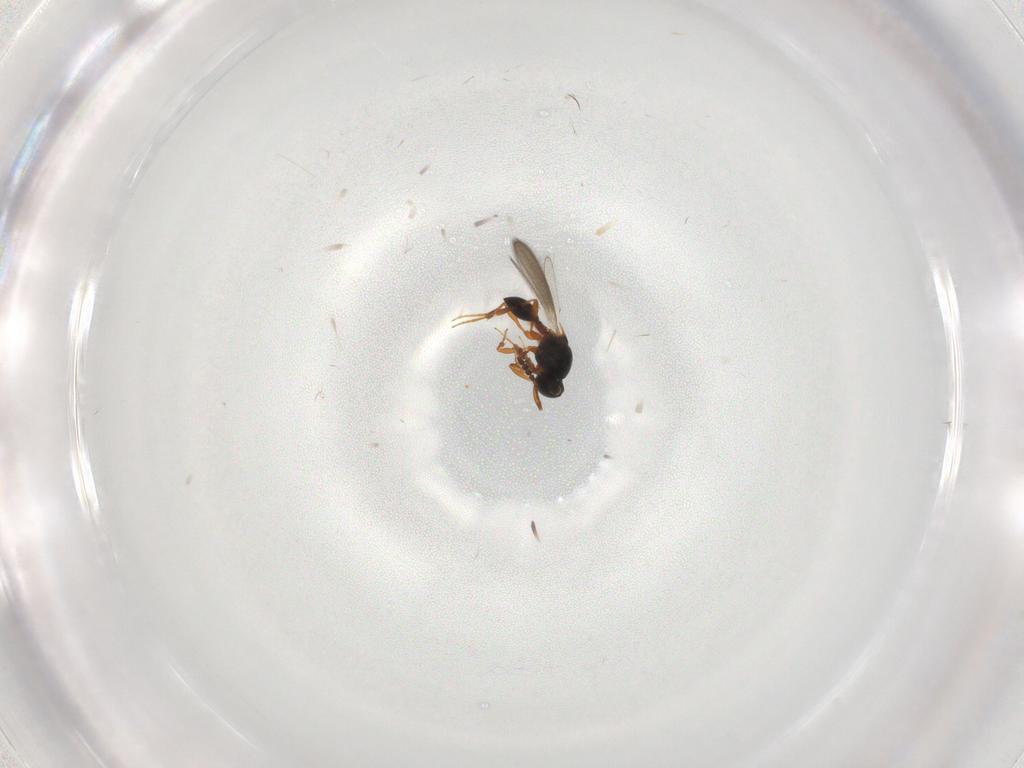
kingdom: Animalia
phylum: Arthropoda
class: Insecta
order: Hymenoptera
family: Platygastridae
